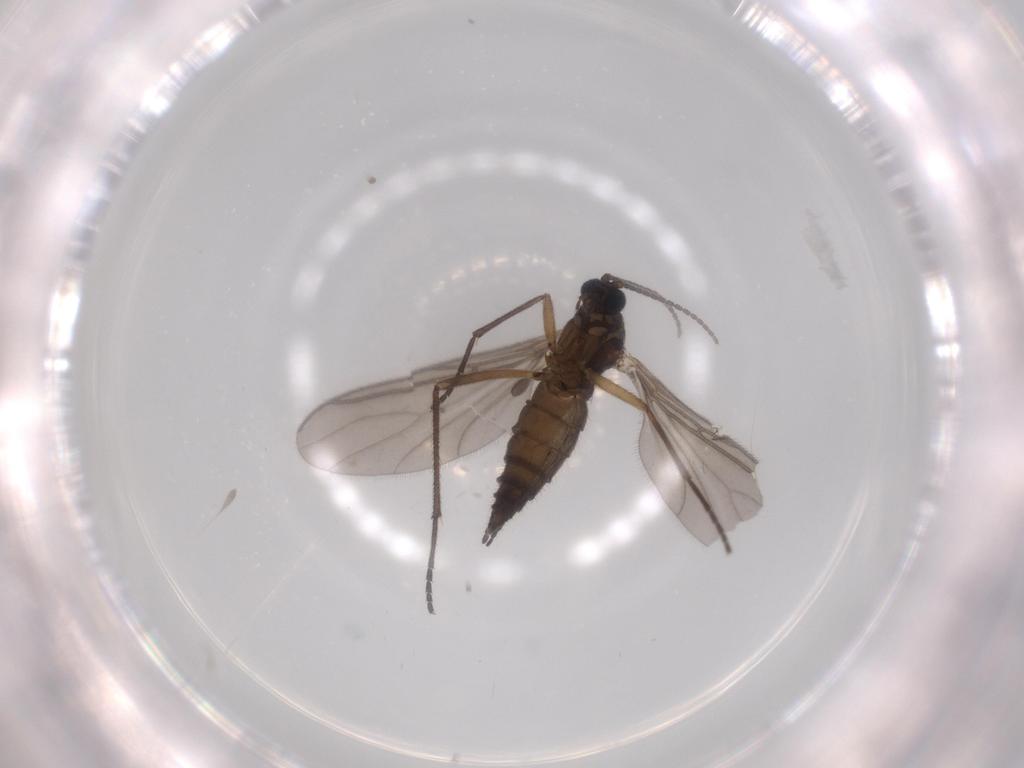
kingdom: Animalia
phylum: Arthropoda
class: Insecta
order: Diptera
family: Sciaridae
